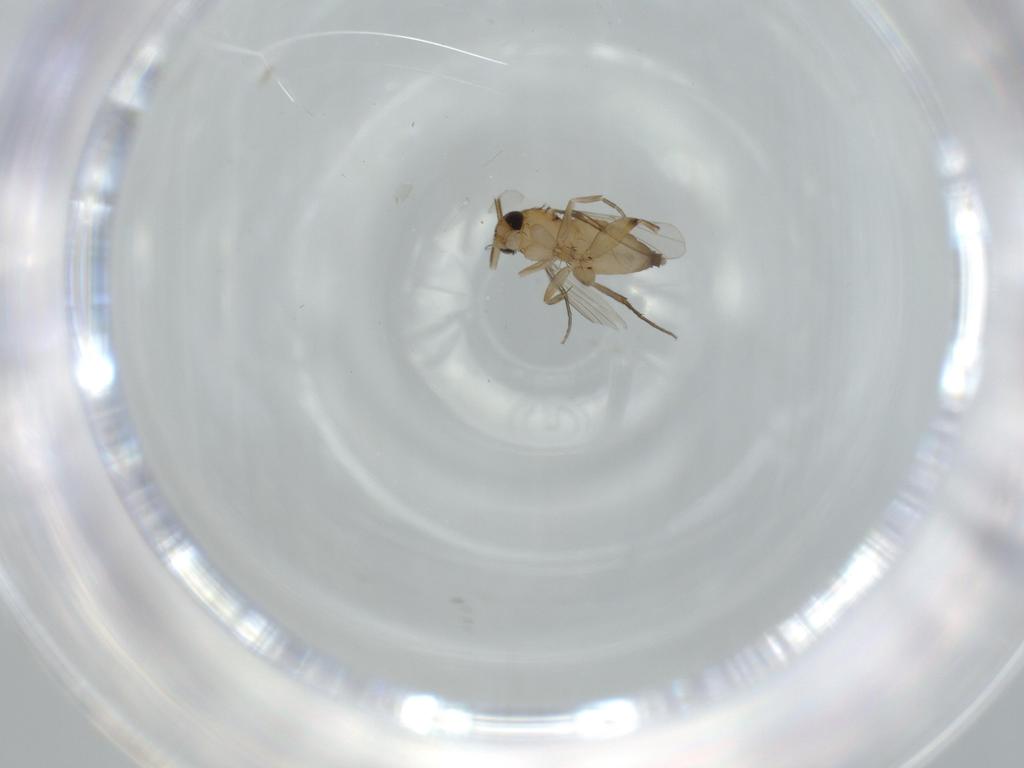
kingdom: Animalia
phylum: Arthropoda
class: Insecta
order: Diptera
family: Phoridae
